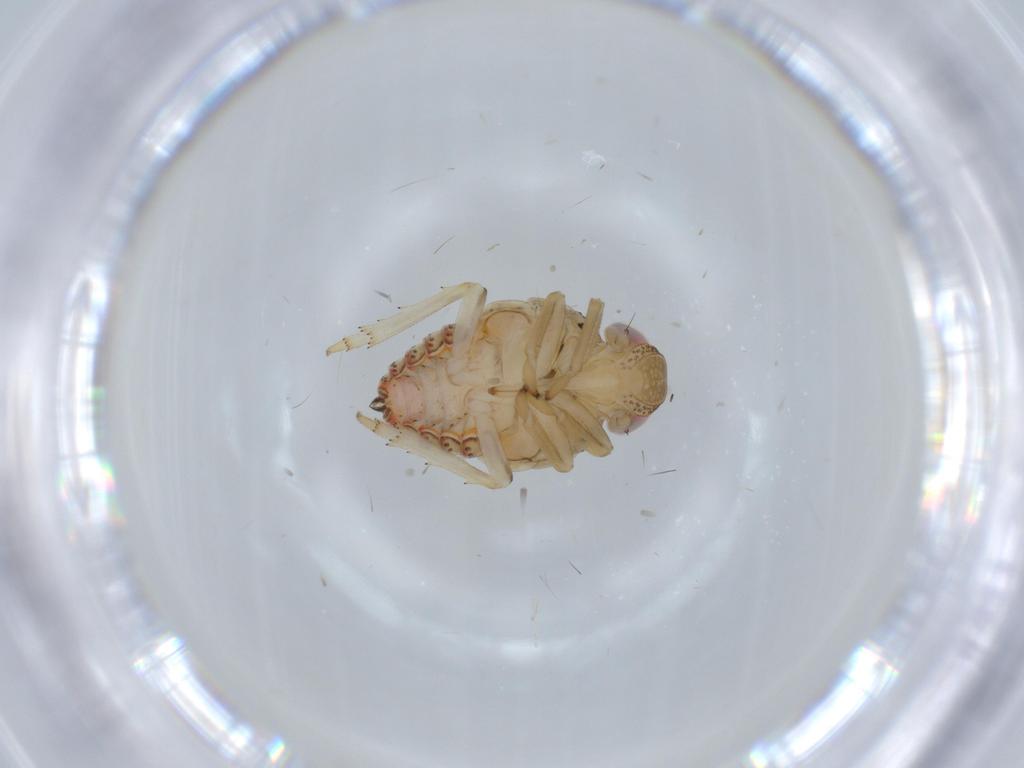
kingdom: Animalia
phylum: Arthropoda
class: Insecta
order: Hemiptera
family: Issidae
